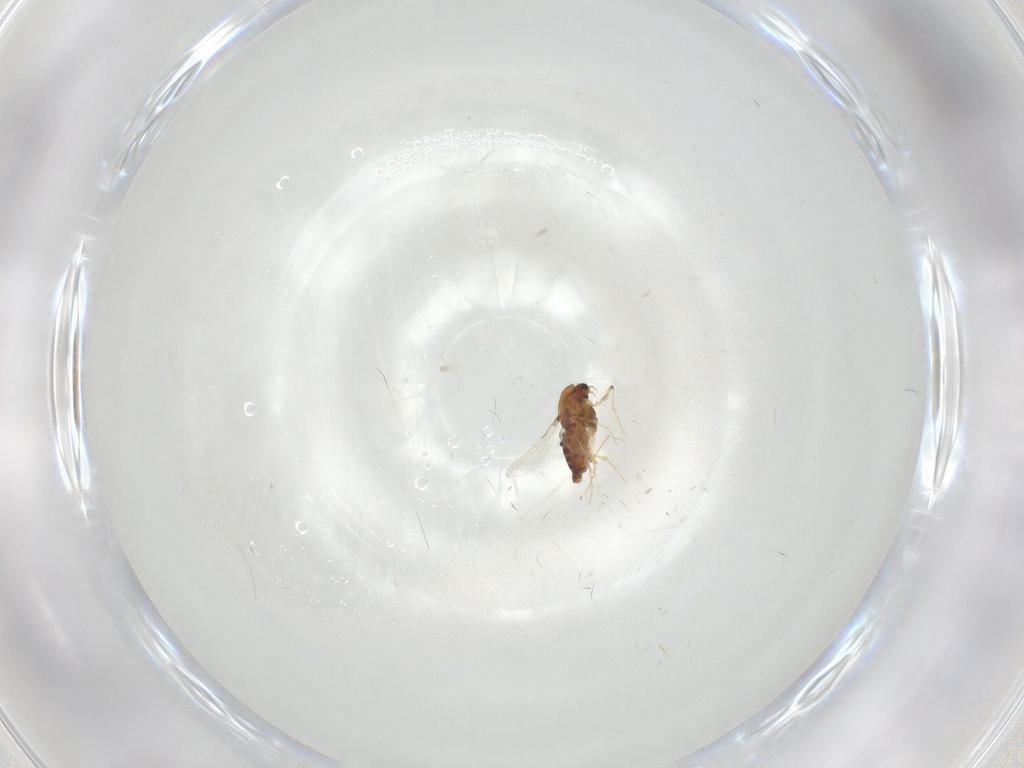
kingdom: Animalia
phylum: Arthropoda
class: Insecta
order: Diptera
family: Chironomidae
